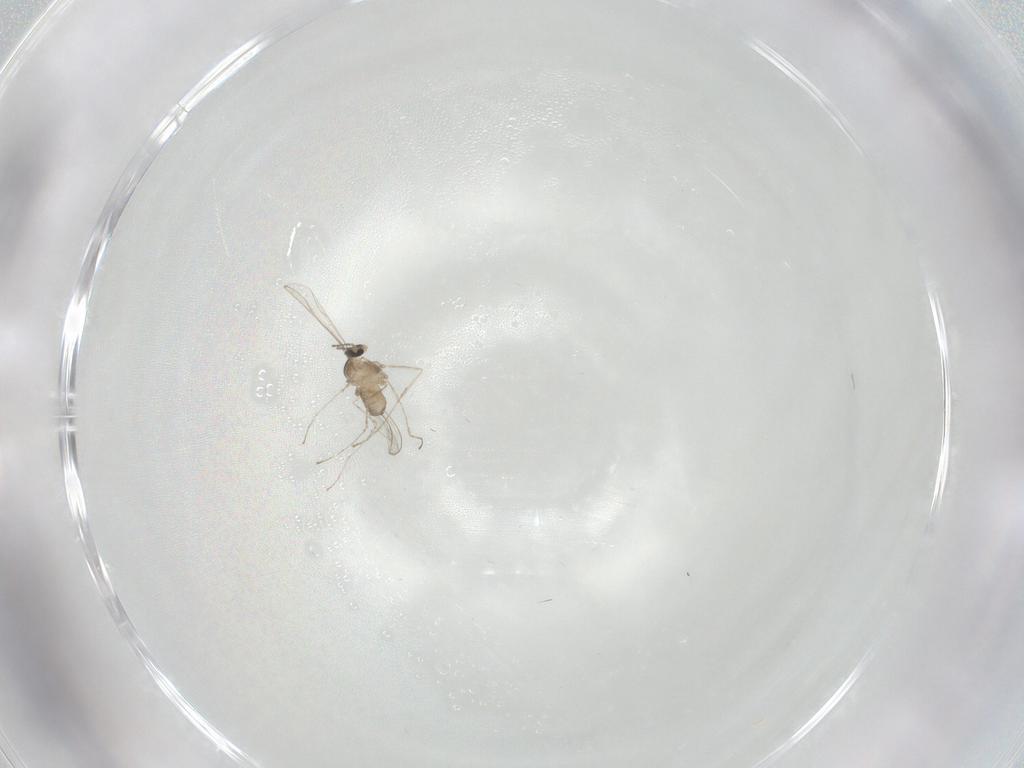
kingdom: Animalia
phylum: Arthropoda
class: Insecta
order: Diptera
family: Cecidomyiidae
